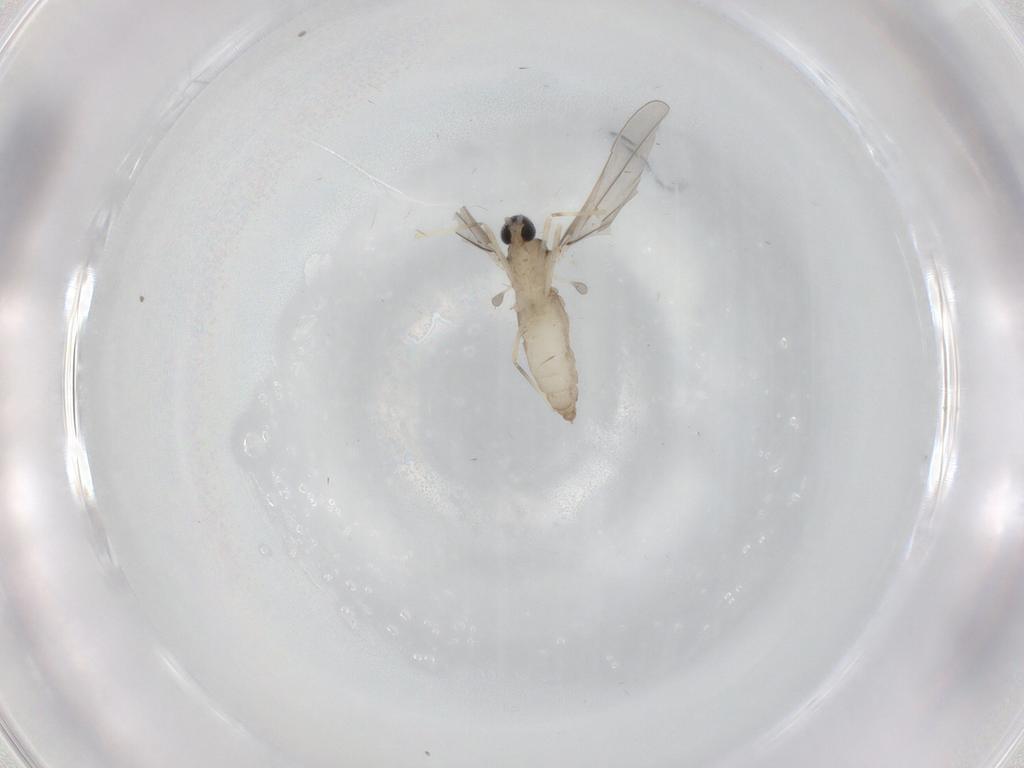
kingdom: Animalia
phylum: Arthropoda
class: Insecta
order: Diptera
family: Cecidomyiidae
